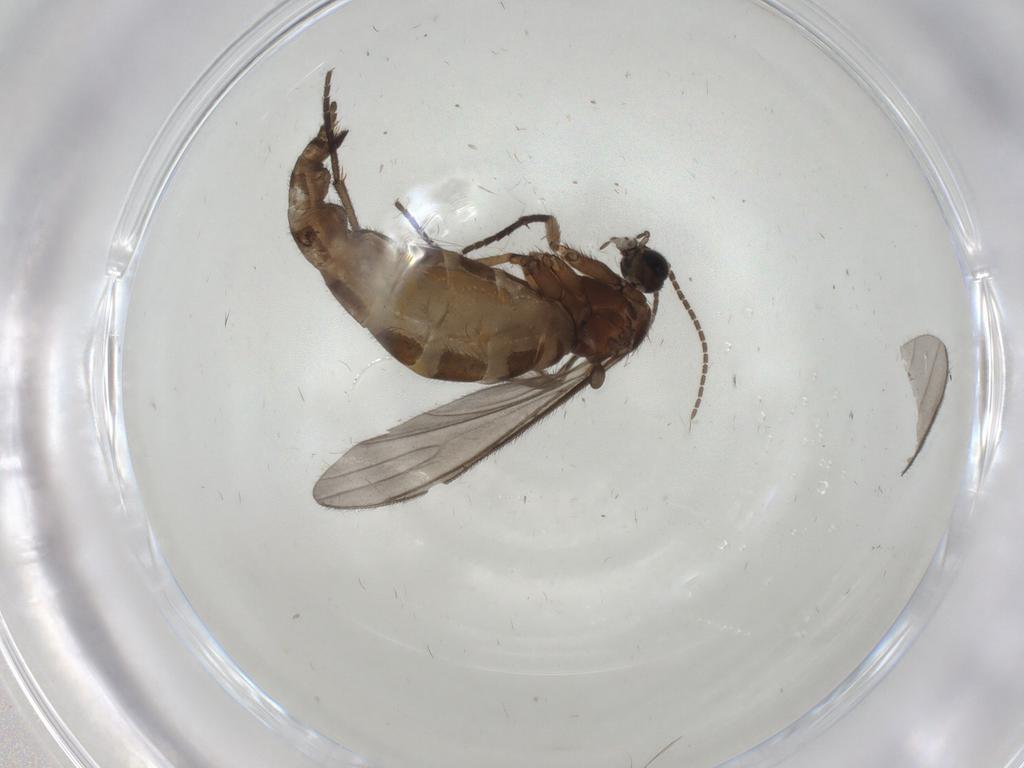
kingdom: Animalia
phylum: Arthropoda
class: Insecta
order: Diptera
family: Sciaridae
